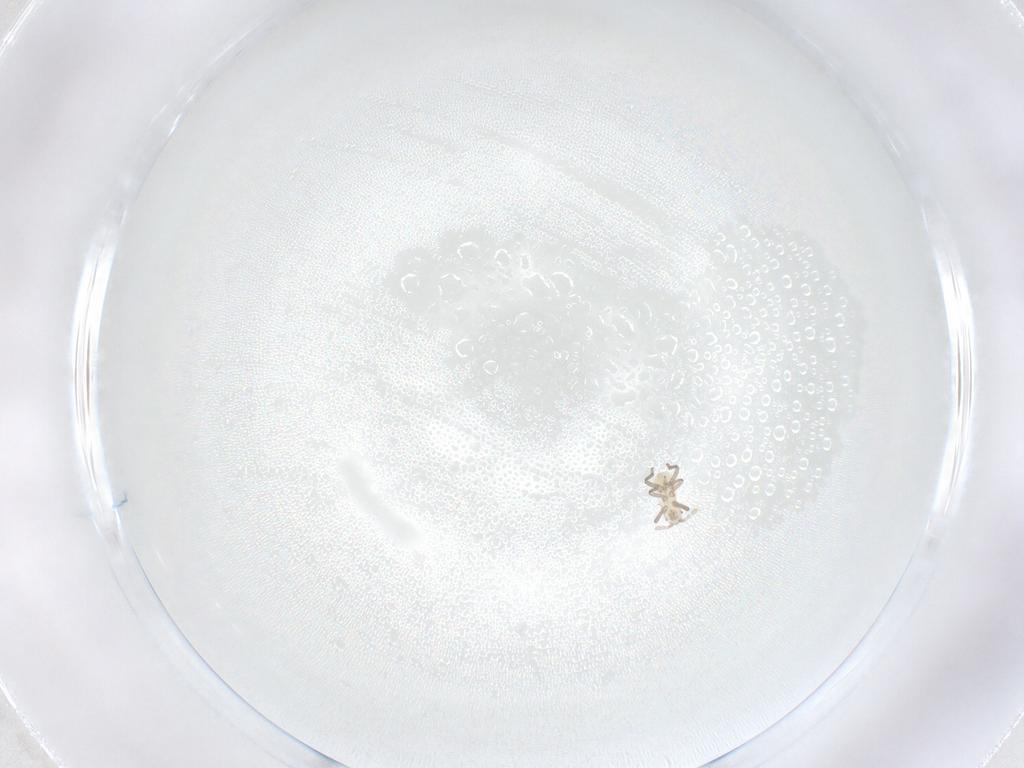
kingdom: Animalia
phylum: Arthropoda
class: Insecta
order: Hemiptera
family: Aphididae
